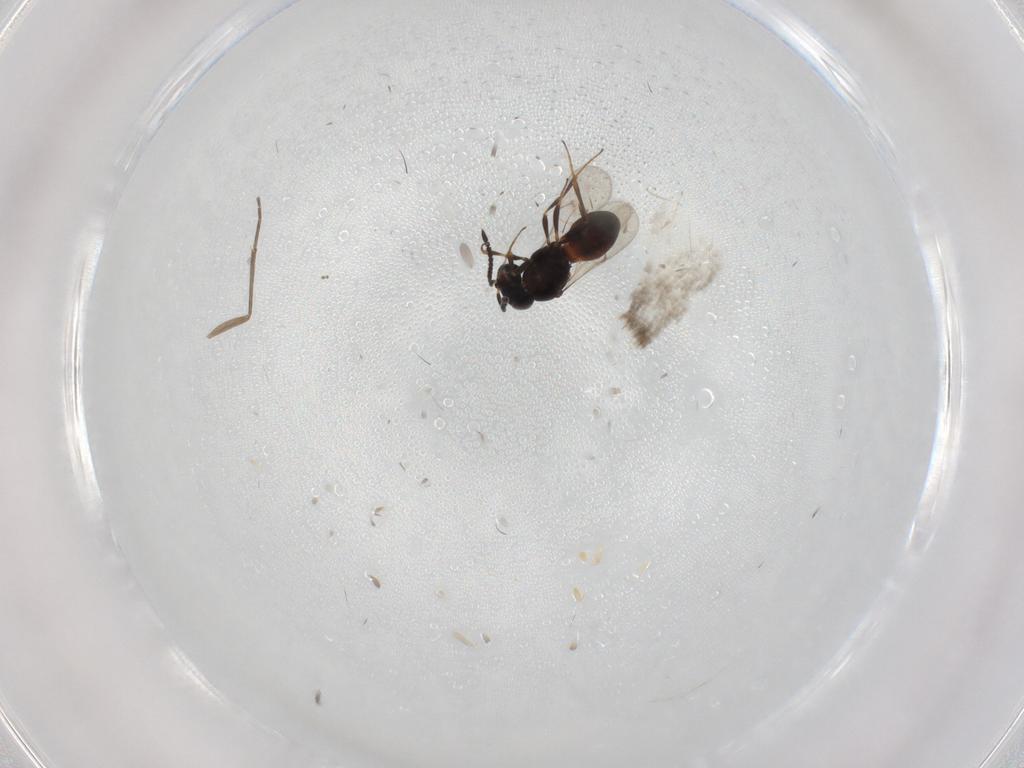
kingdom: Animalia
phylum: Arthropoda
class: Insecta
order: Hymenoptera
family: Scelionidae
